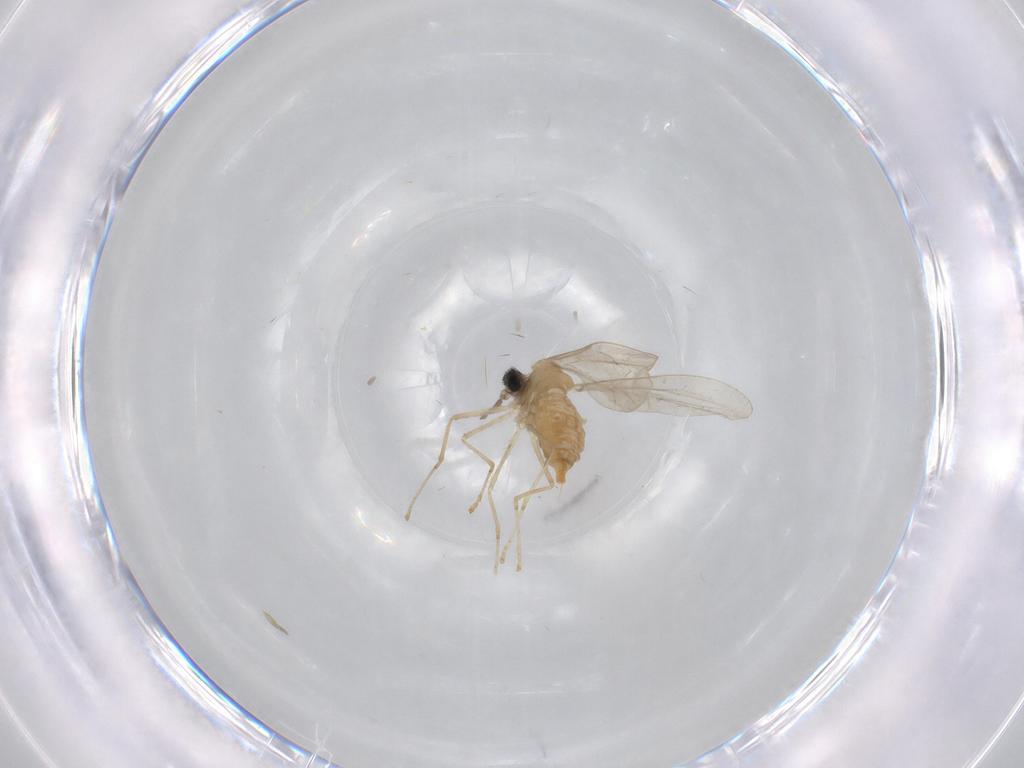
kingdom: Animalia
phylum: Arthropoda
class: Insecta
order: Diptera
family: Cecidomyiidae
